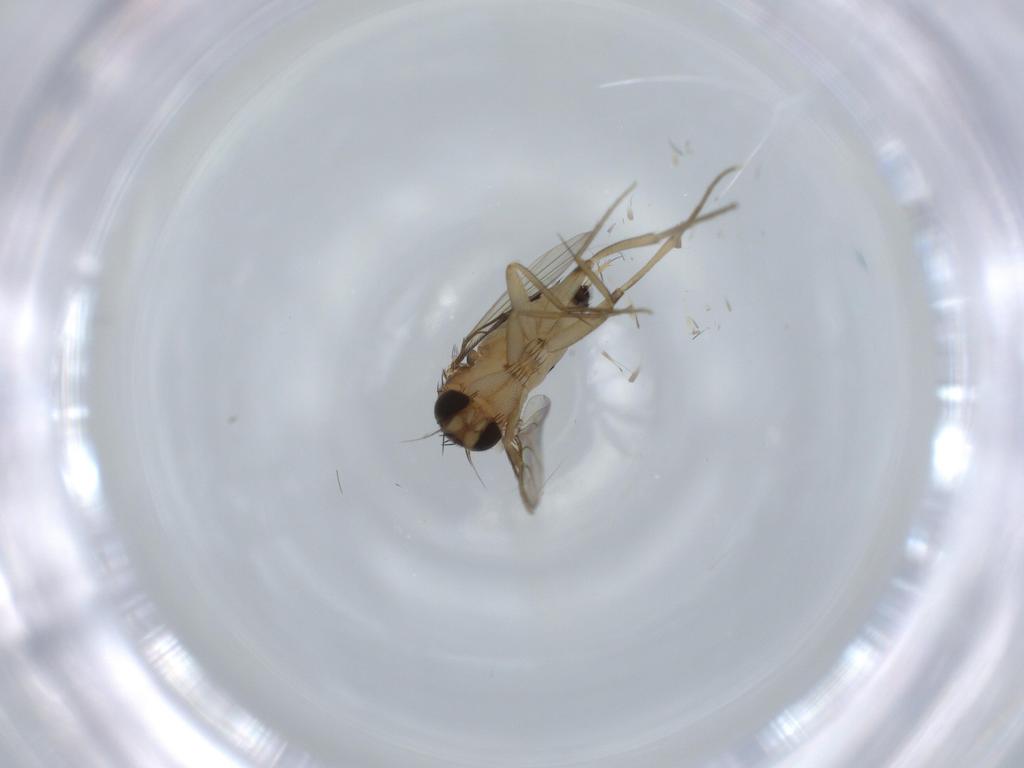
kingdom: Animalia
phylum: Arthropoda
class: Insecta
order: Diptera
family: Phoridae
